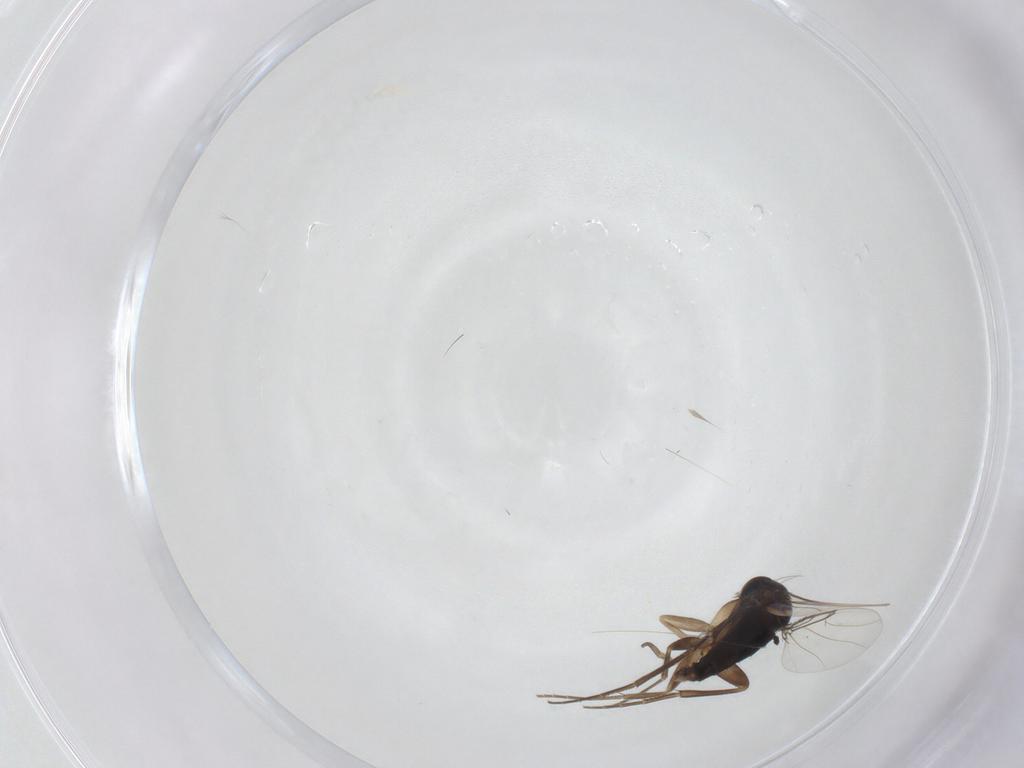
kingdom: Animalia
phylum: Arthropoda
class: Insecta
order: Diptera
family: Phoridae
